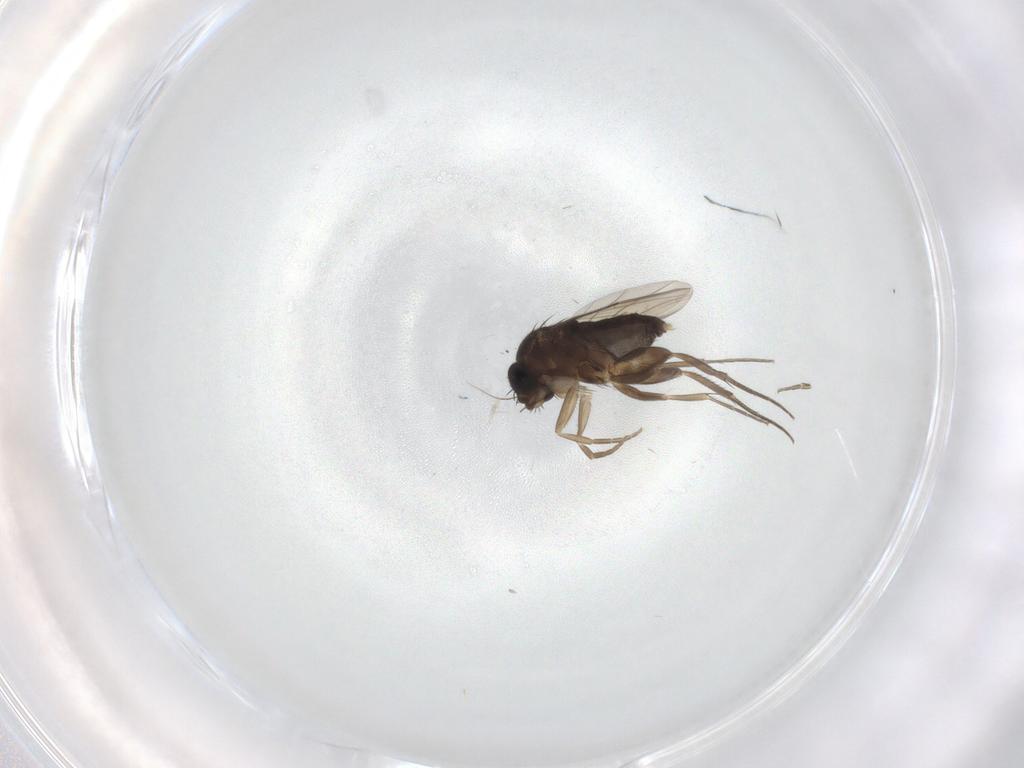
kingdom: Animalia
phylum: Arthropoda
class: Insecta
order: Diptera
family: Phoridae
